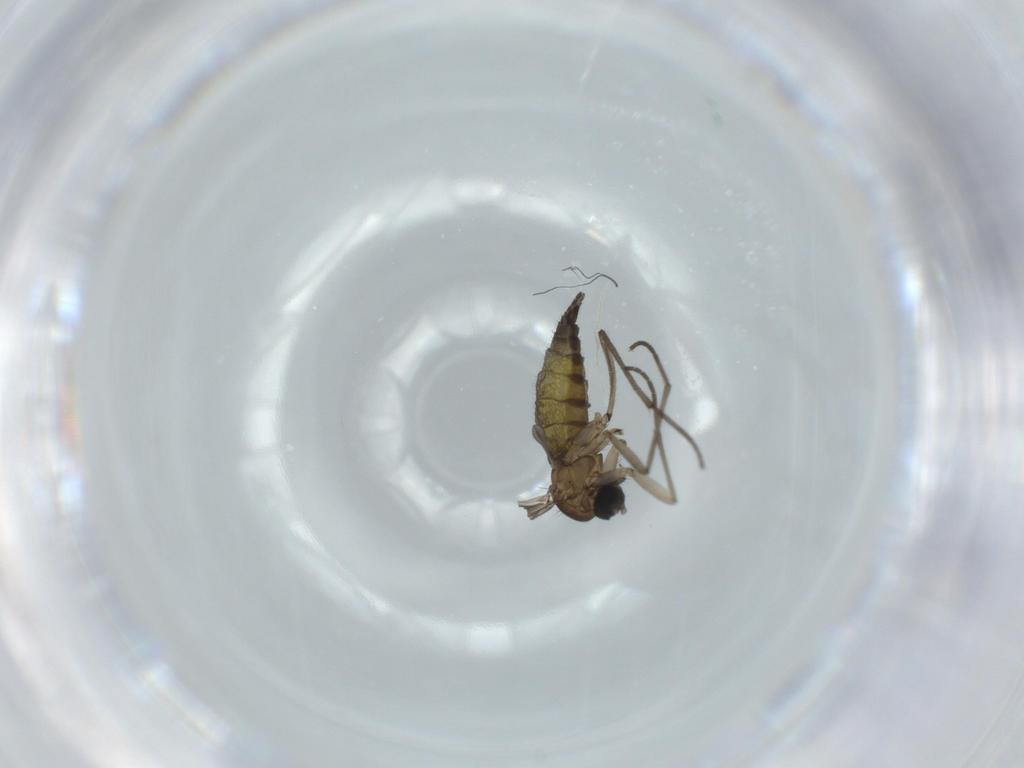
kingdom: Animalia
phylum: Arthropoda
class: Insecta
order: Diptera
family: Sciaridae
